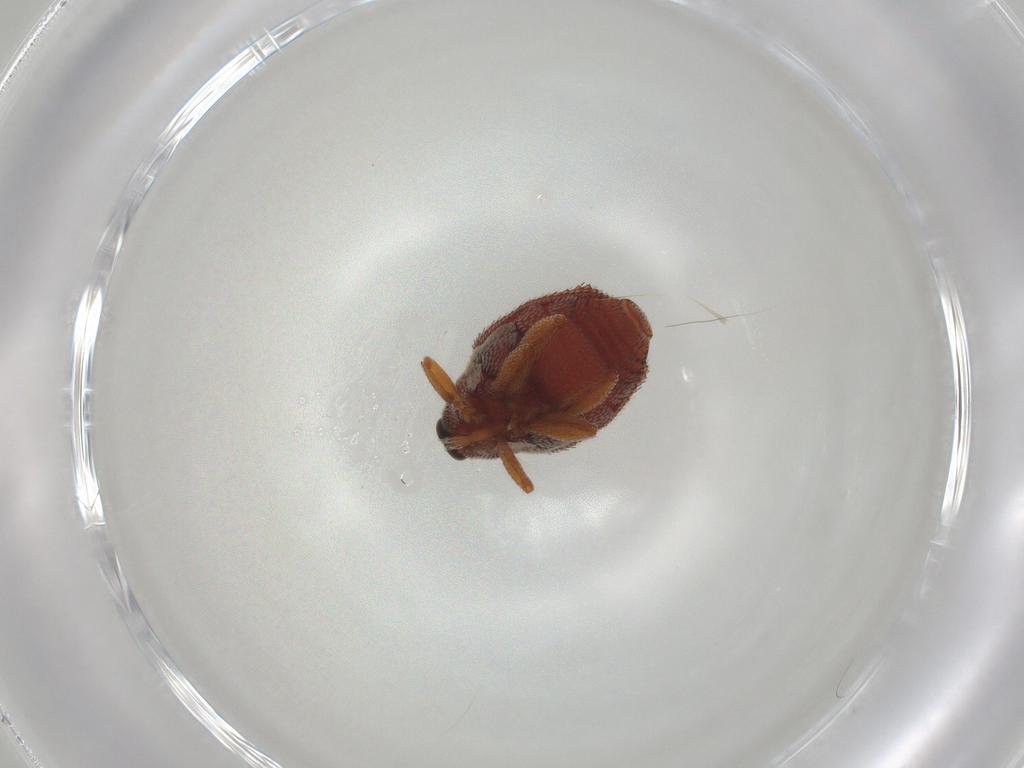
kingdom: Animalia
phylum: Arthropoda
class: Insecta
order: Coleoptera
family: Curculionidae
